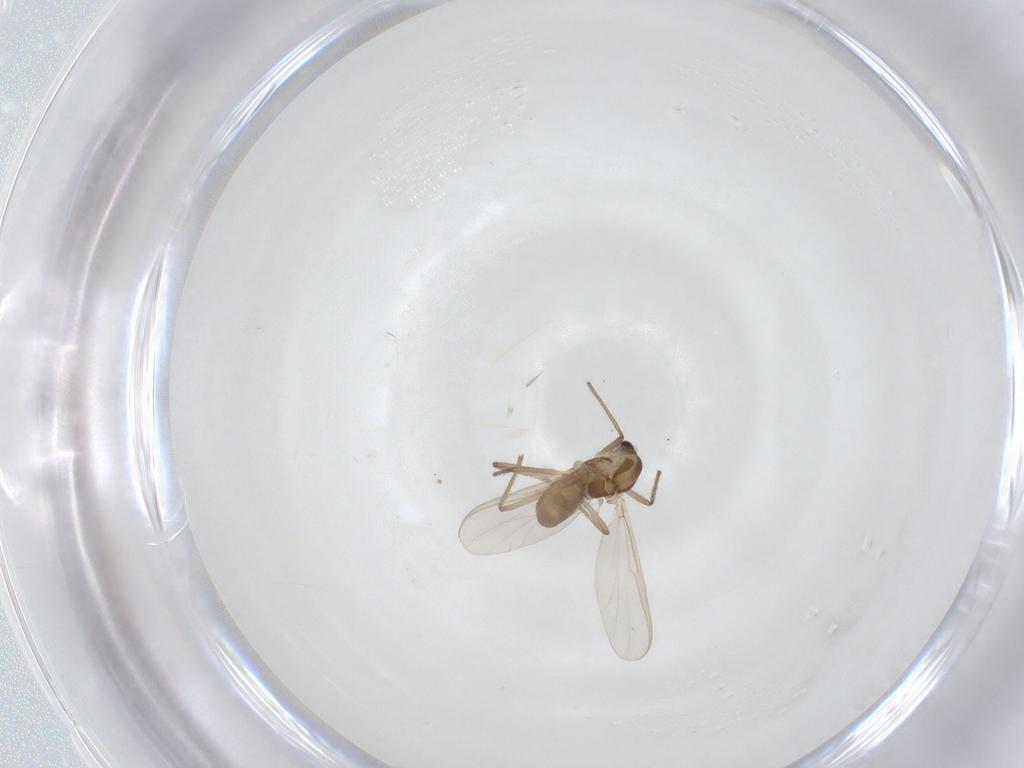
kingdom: Animalia
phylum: Arthropoda
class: Insecta
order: Diptera
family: Chironomidae
